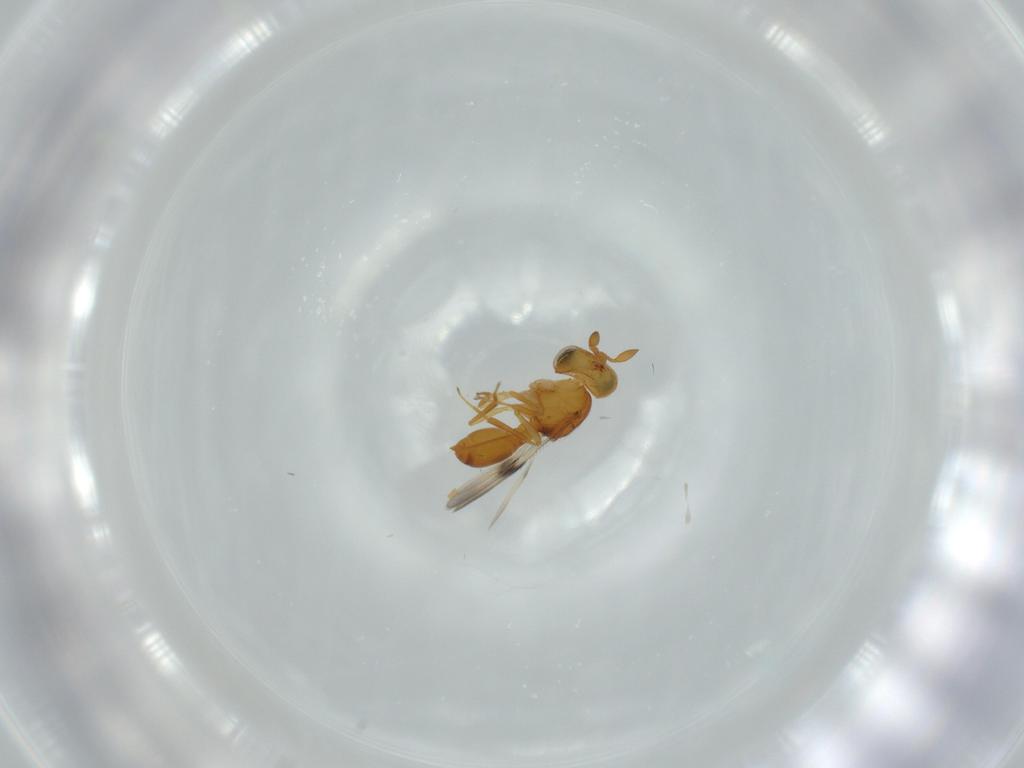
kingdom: Animalia
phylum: Arthropoda
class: Insecta
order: Hymenoptera
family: Scelionidae
